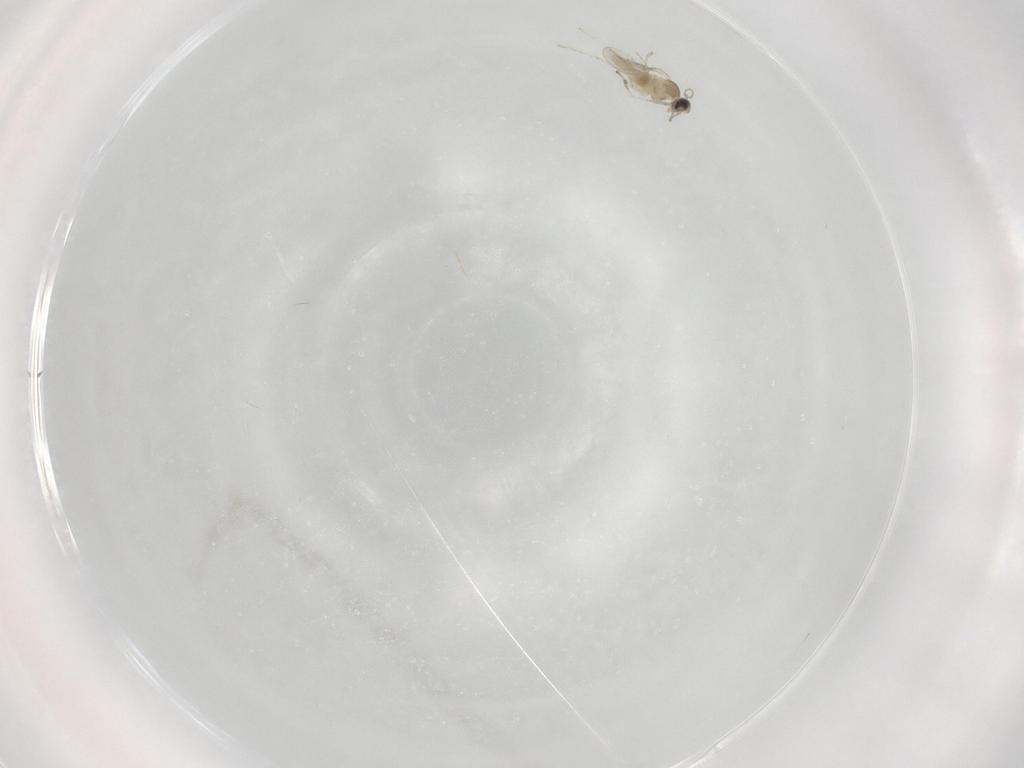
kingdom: Animalia
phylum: Arthropoda
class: Insecta
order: Diptera
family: Cecidomyiidae
